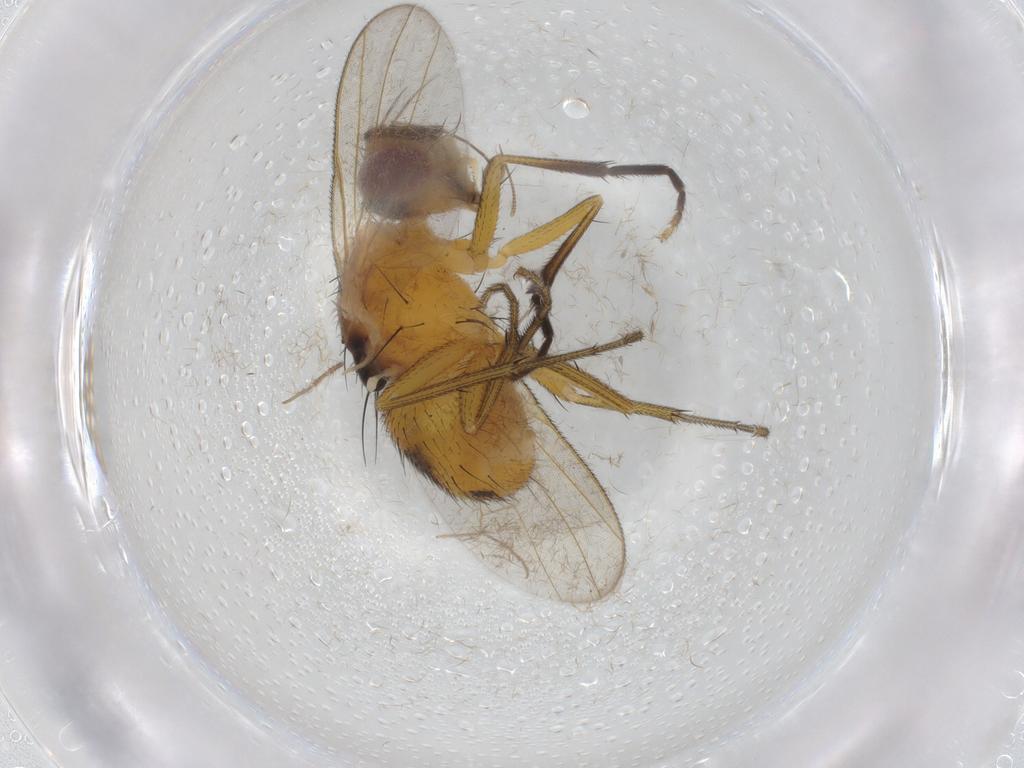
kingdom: Animalia
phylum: Arthropoda
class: Insecta
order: Diptera
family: Muscidae
